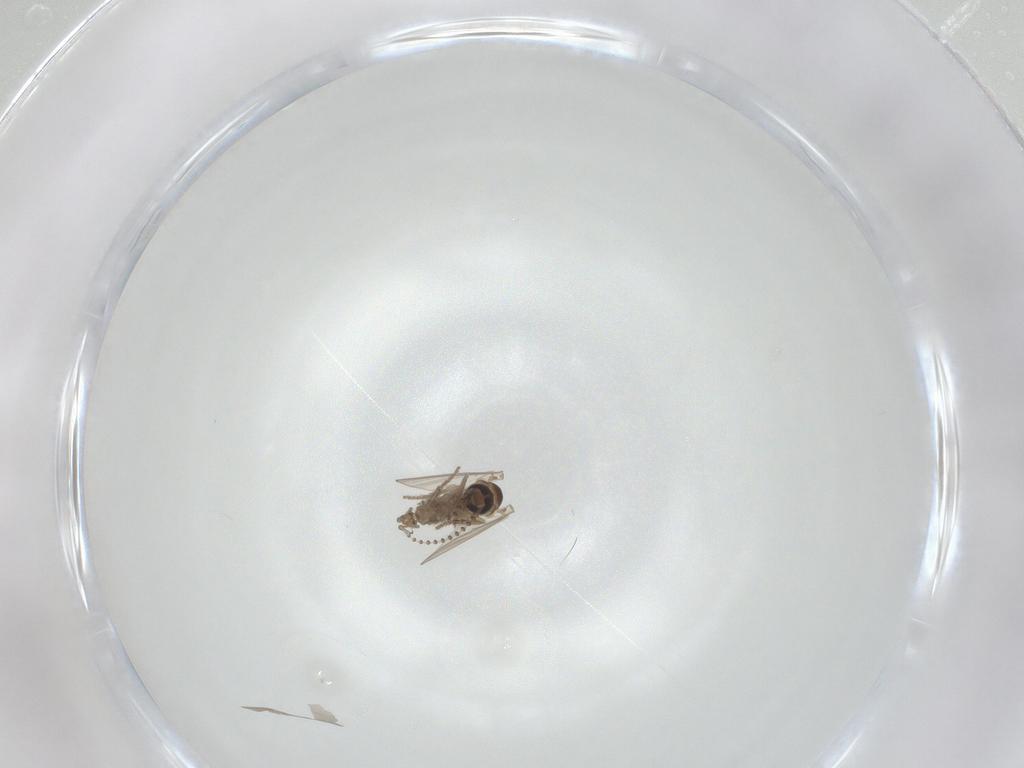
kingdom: Animalia
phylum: Arthropoda
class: Insecta
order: Diptera
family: Psychodidae
